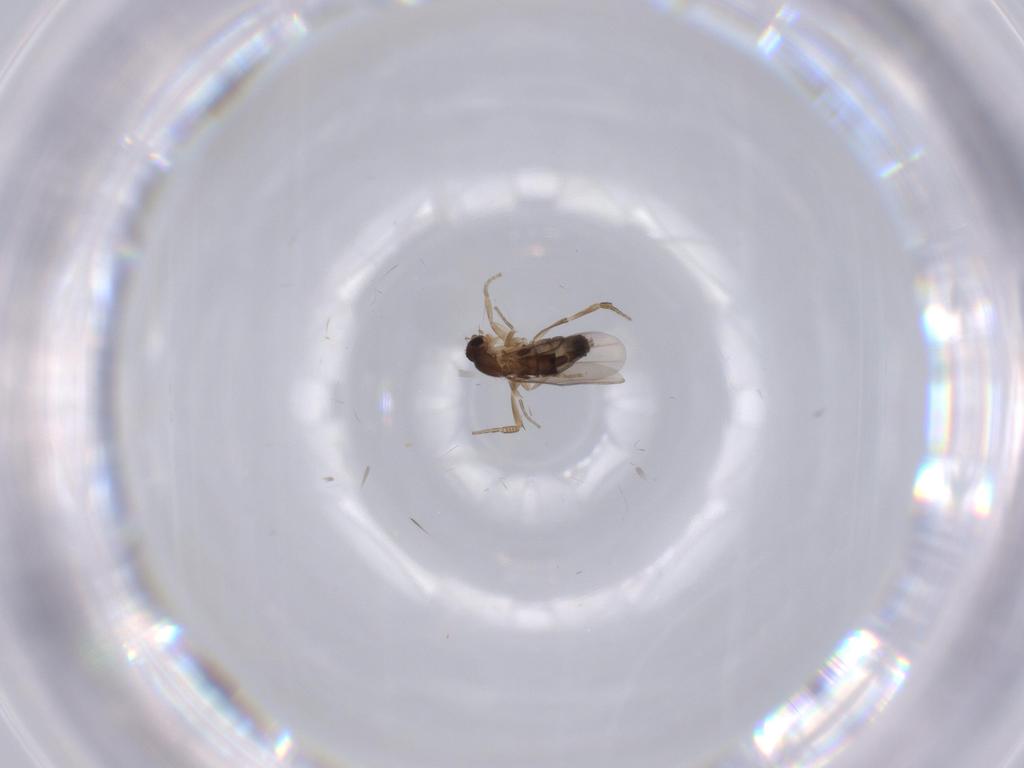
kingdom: Animalia
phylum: Arthropoda
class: Insecta
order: Diptera
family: Phoridae
